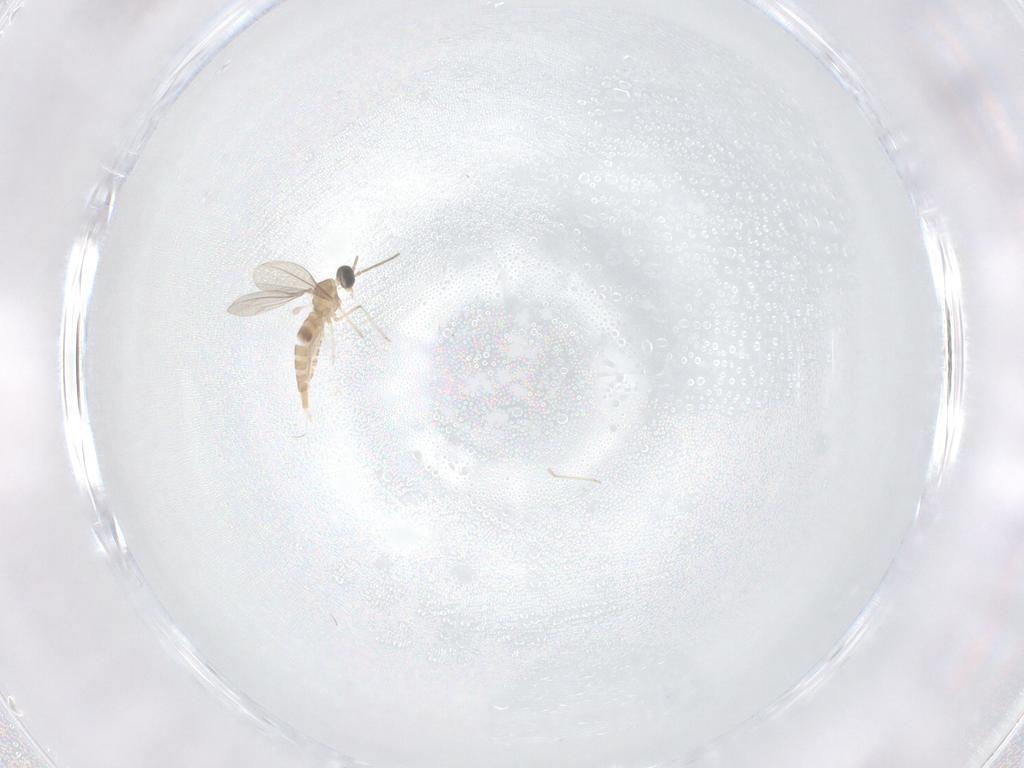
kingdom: Animalia
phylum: Arthropoda
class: Insecta
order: Diptera
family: Cecidomyiidae
